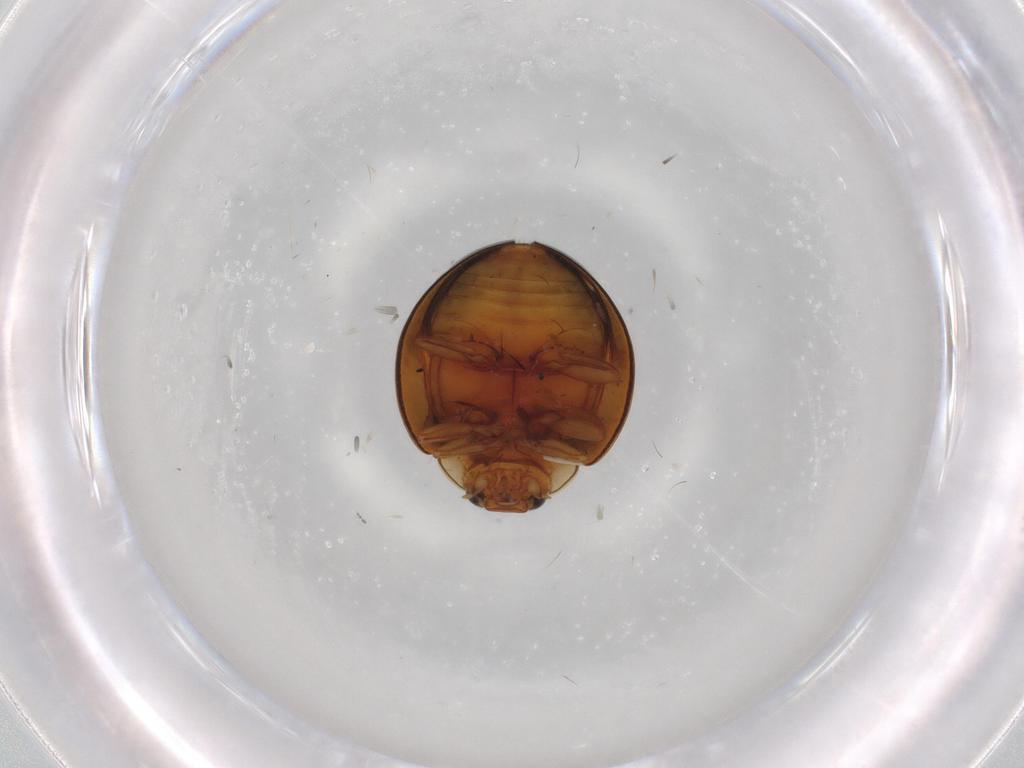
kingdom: Animalia
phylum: Arthropoda
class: Insecta
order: Coleoptera
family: Coccinellidae
